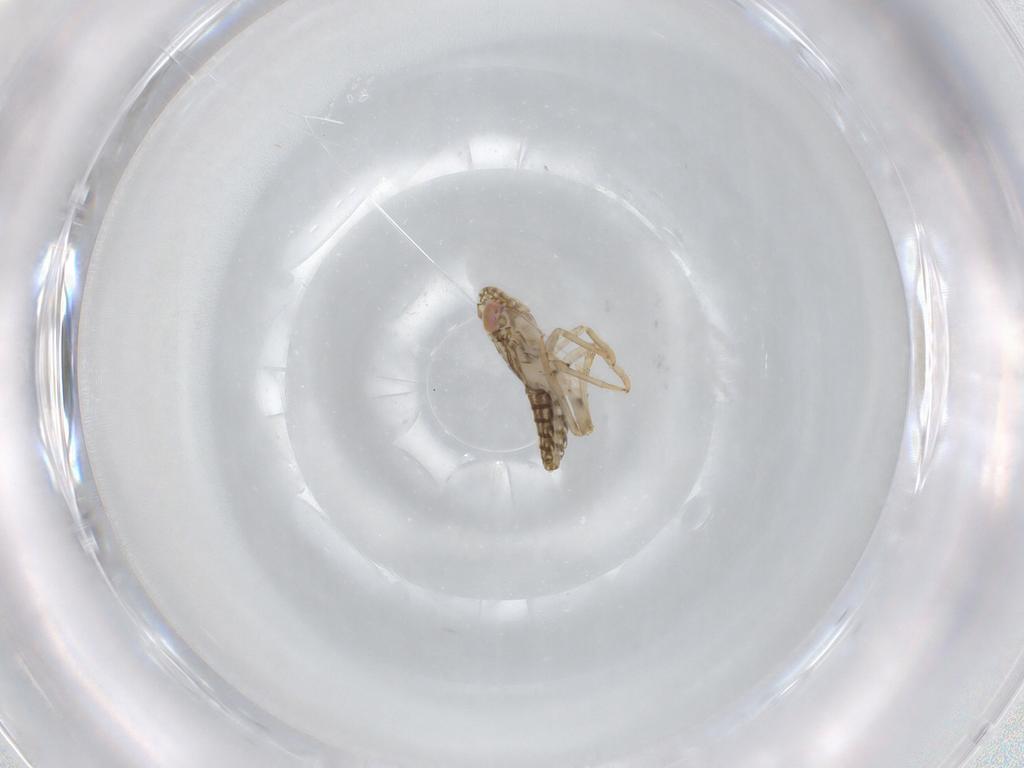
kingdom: Animalia
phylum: Arthropoda
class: Insecta
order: Hemiptera
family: Delphacidae
